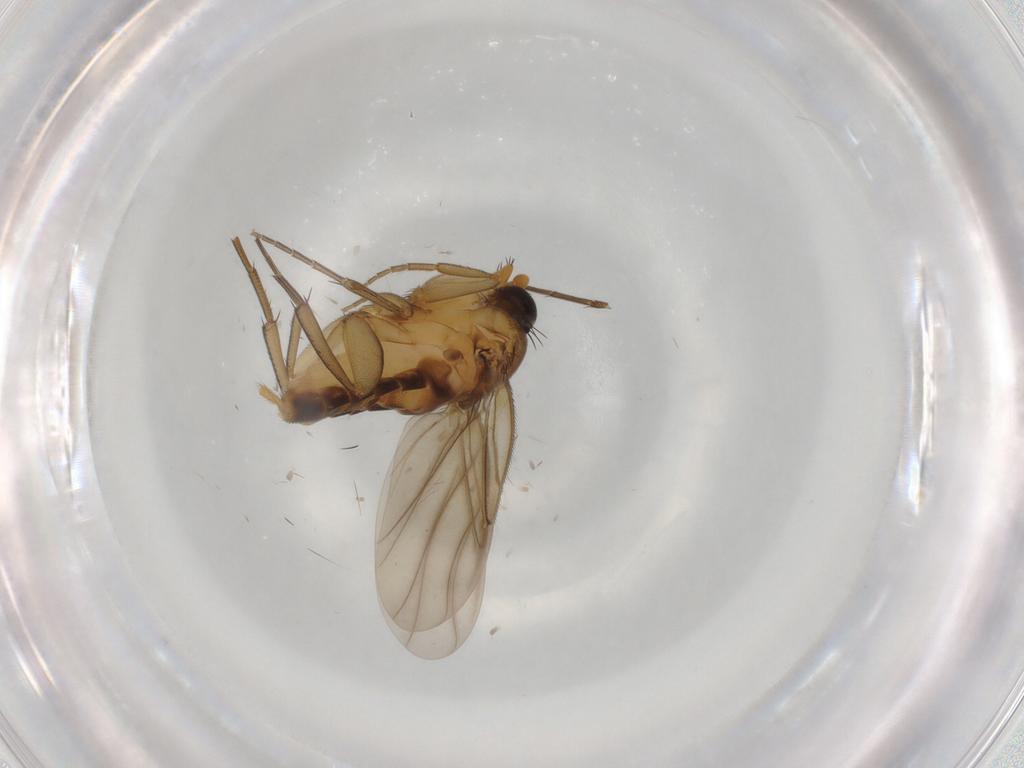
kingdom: Animalia
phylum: Arthropoda
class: Insecta
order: Diptera
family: Phoridae
